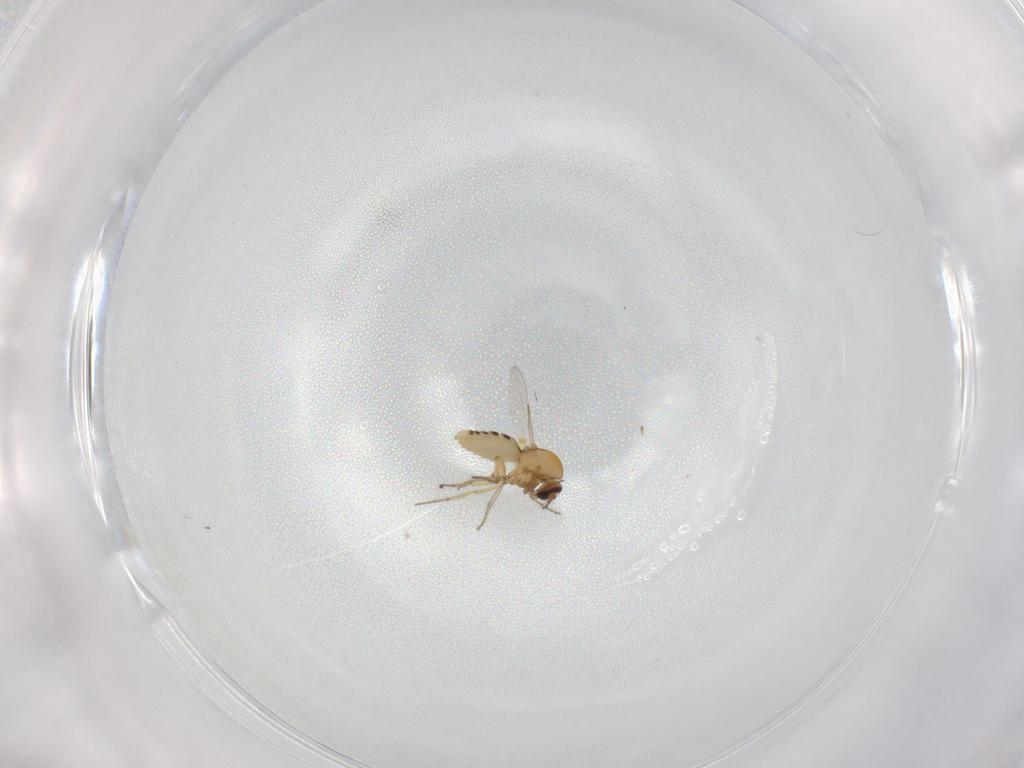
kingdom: Animalia
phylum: Arthropoda
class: Insecta
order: Diptera
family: Ceratopogonidae
